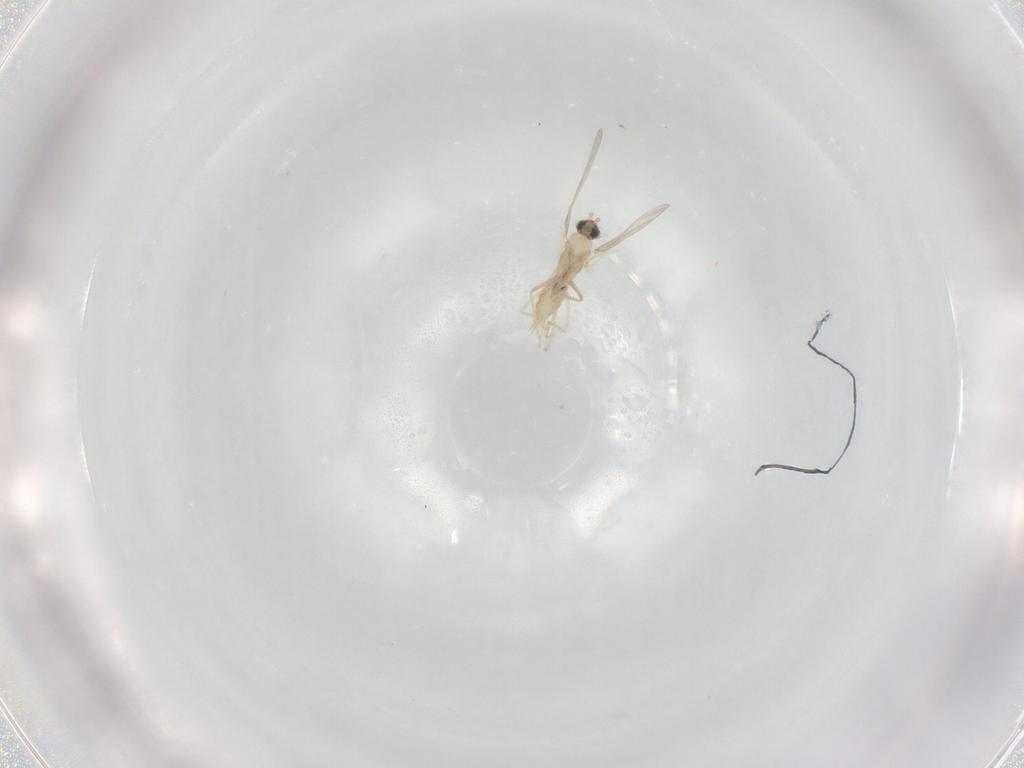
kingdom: Animalia
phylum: Arthropoda
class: Insecta
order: Diptera
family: Cecidomyiidae
